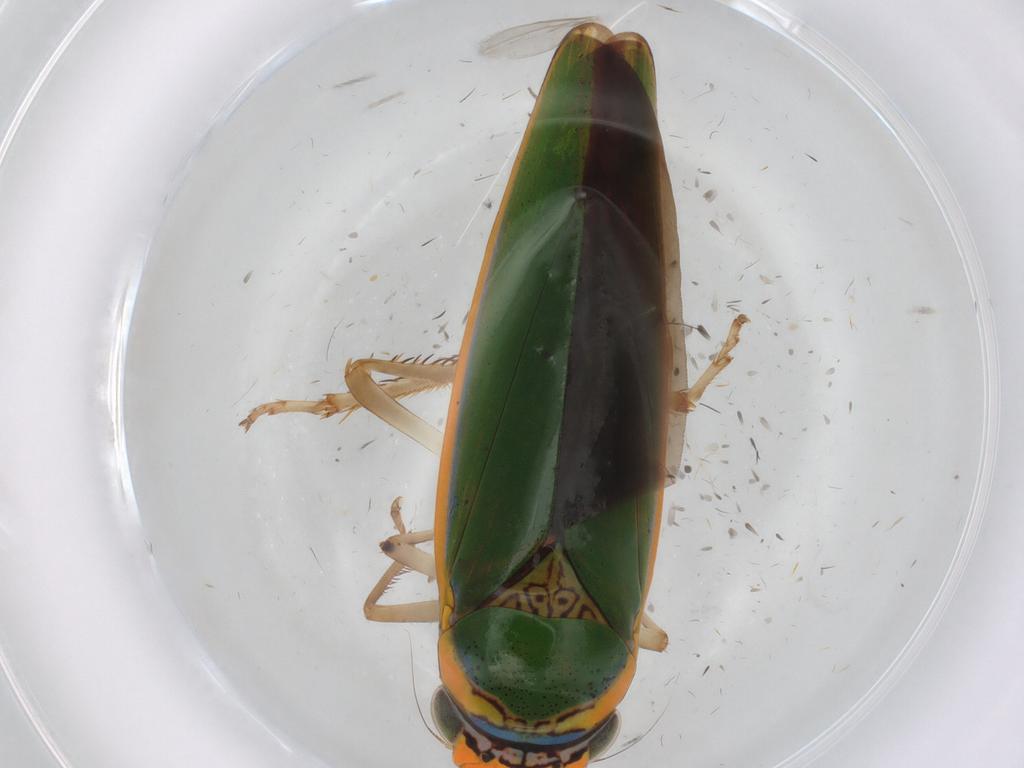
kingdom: Animalia
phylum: Arthropoda
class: Insecta
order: Hemiptera
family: Cicadellidae
